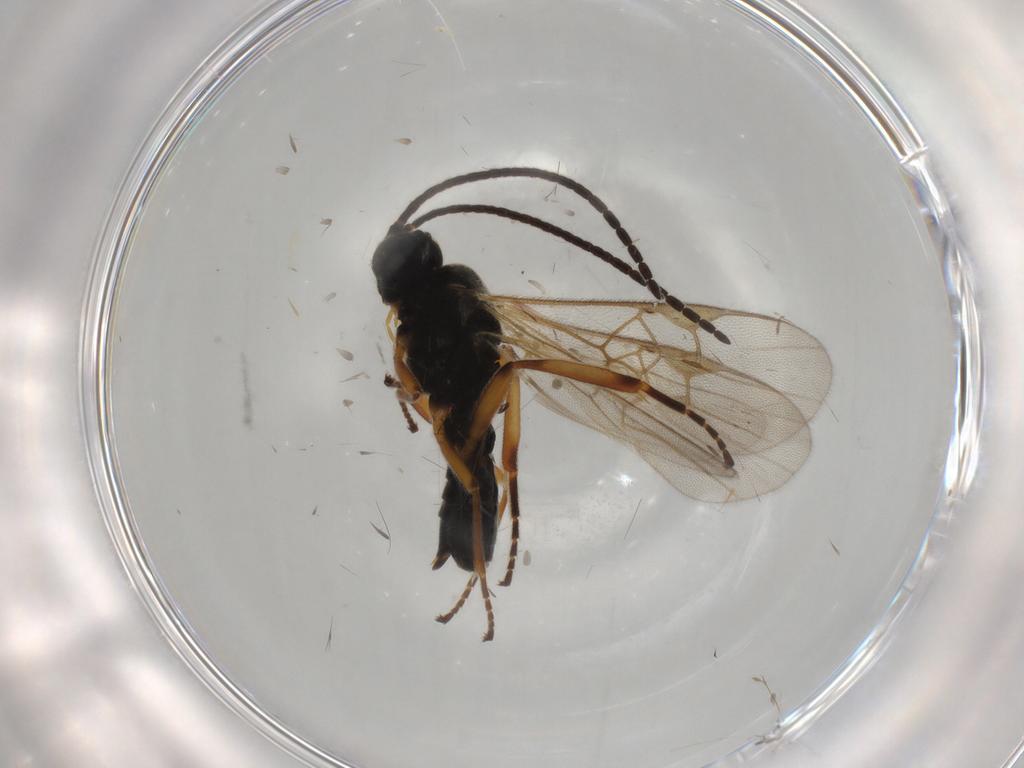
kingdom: Animalia
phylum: Arthropoda
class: Insecta
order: Hymenoptera
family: Braconidae
